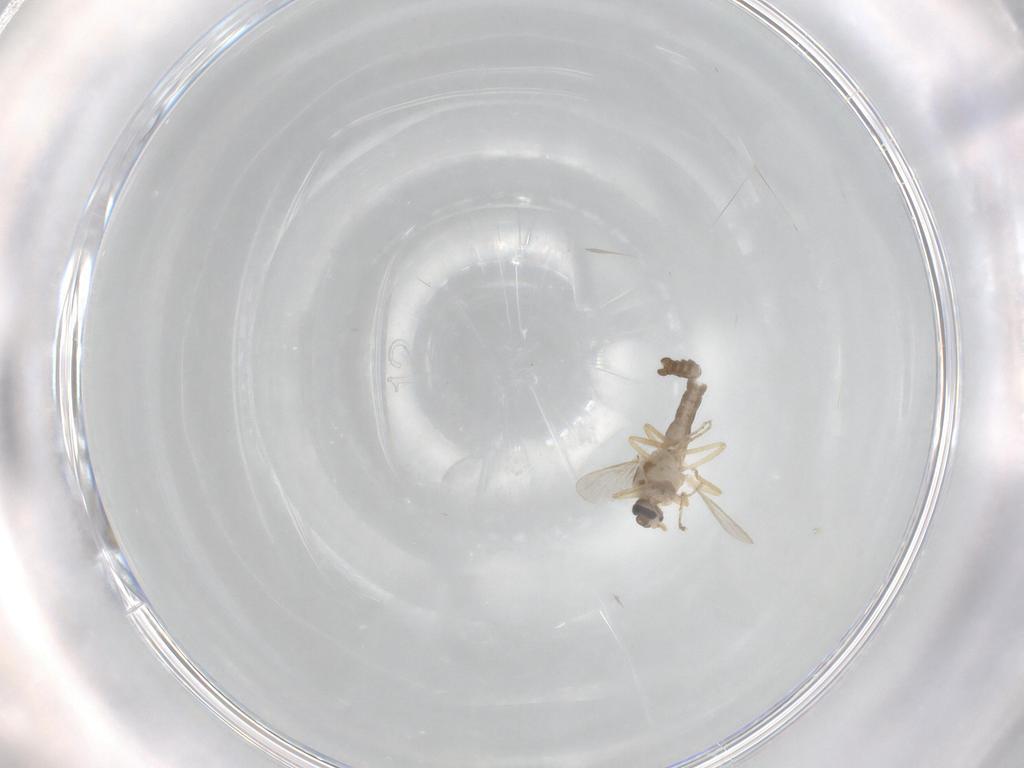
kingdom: Animalia
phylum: Arthropoda
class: Insecta
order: Diptera
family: Ceratopogonidae
